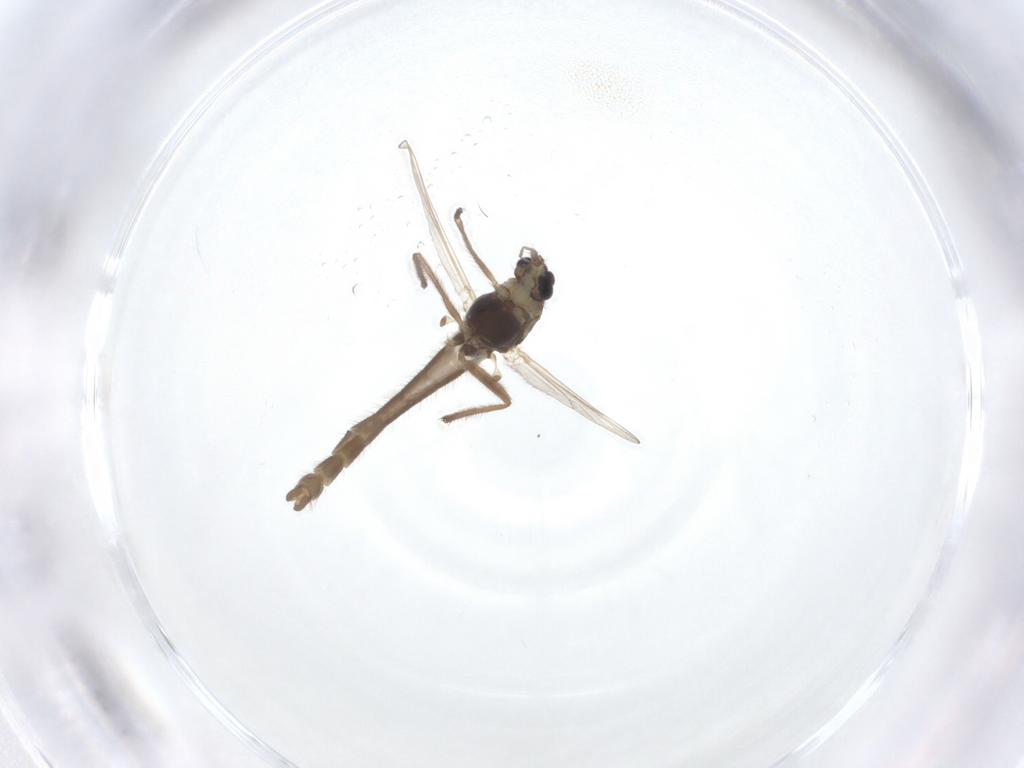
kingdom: Animalia
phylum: Arthropoda
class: Insecta
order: Diptera
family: Chironomidae
